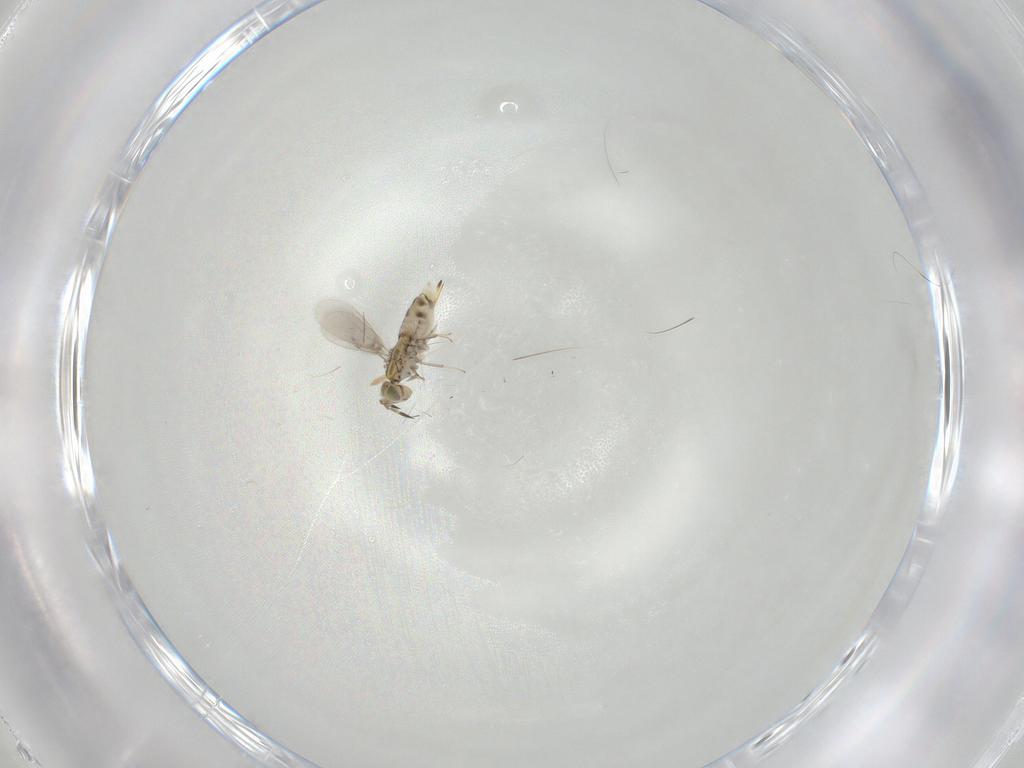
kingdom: Animalia
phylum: Arthropoda
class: Insecta
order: Hymenoptera
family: Aphelinidae
